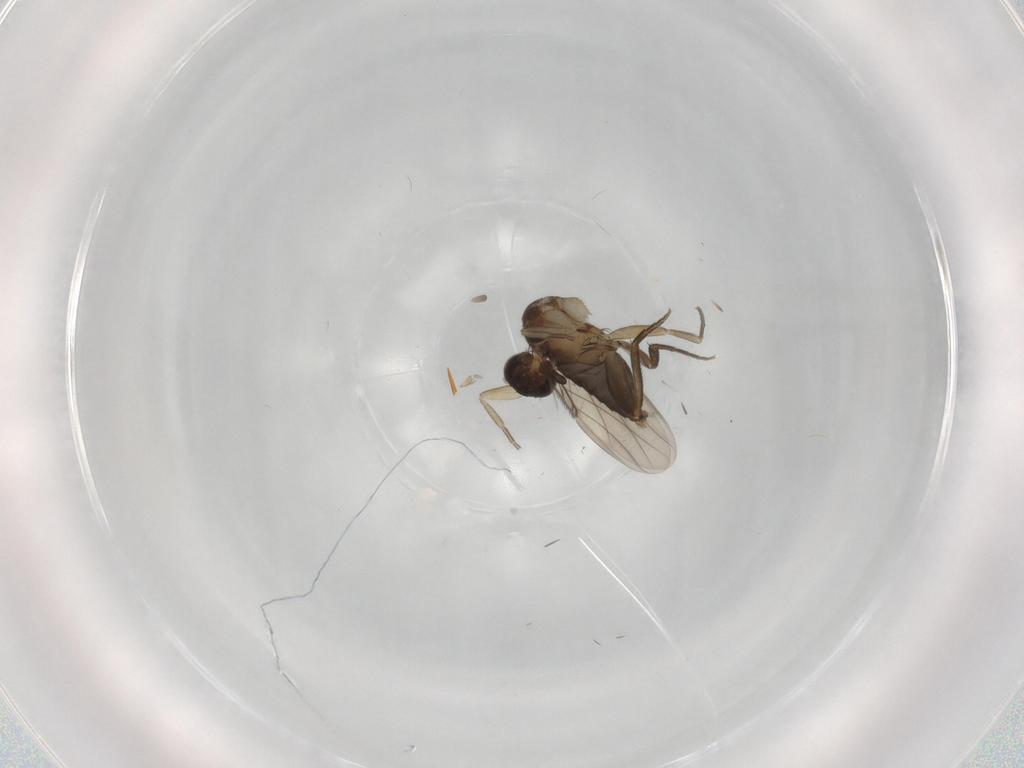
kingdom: Animalia
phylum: Arthropoda
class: Insecta
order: Diptera
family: Phoridae
